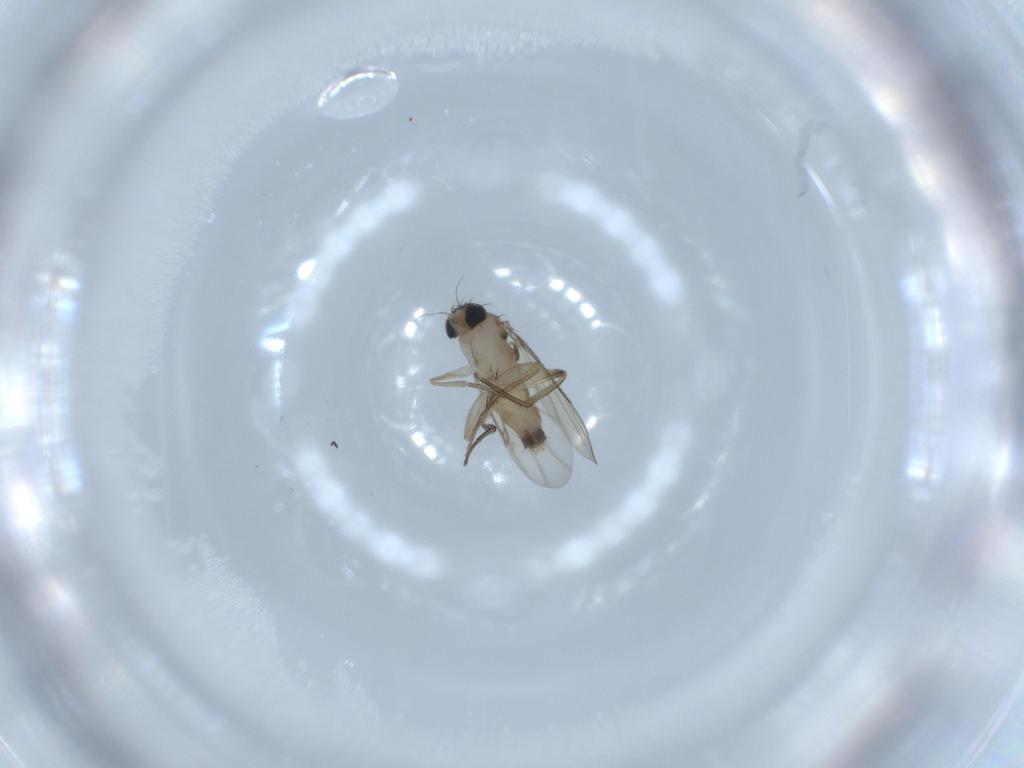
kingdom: Animalia
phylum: Arthropoda
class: Insecta
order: Diptera
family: Phoridae
